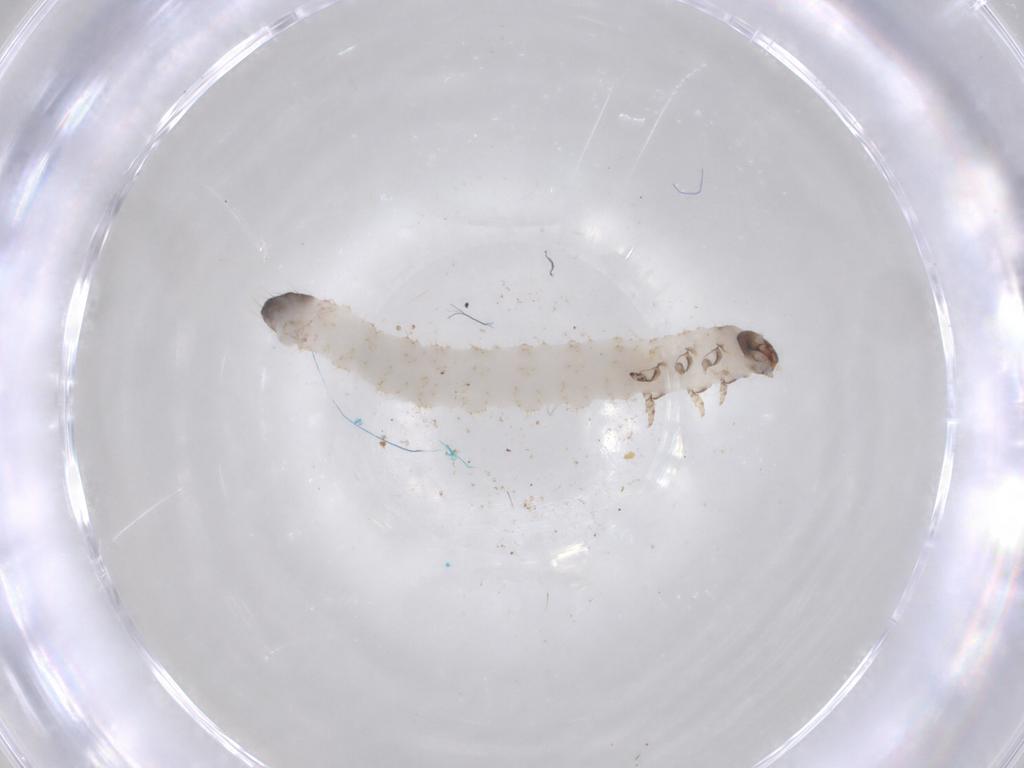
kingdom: Animalia
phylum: Arthropoda
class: Insecta
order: Coleoptera
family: Chrysomelidae
